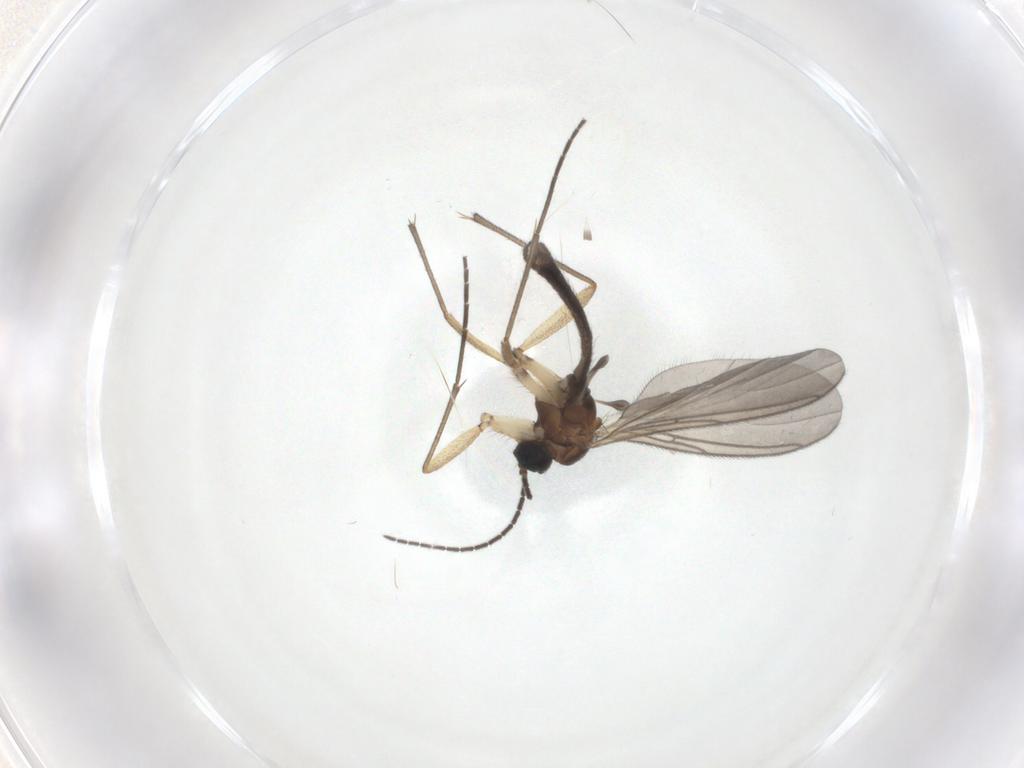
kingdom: Animalia
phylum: Arthropoda
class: Insecta
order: Diptera
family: Sciaridae
